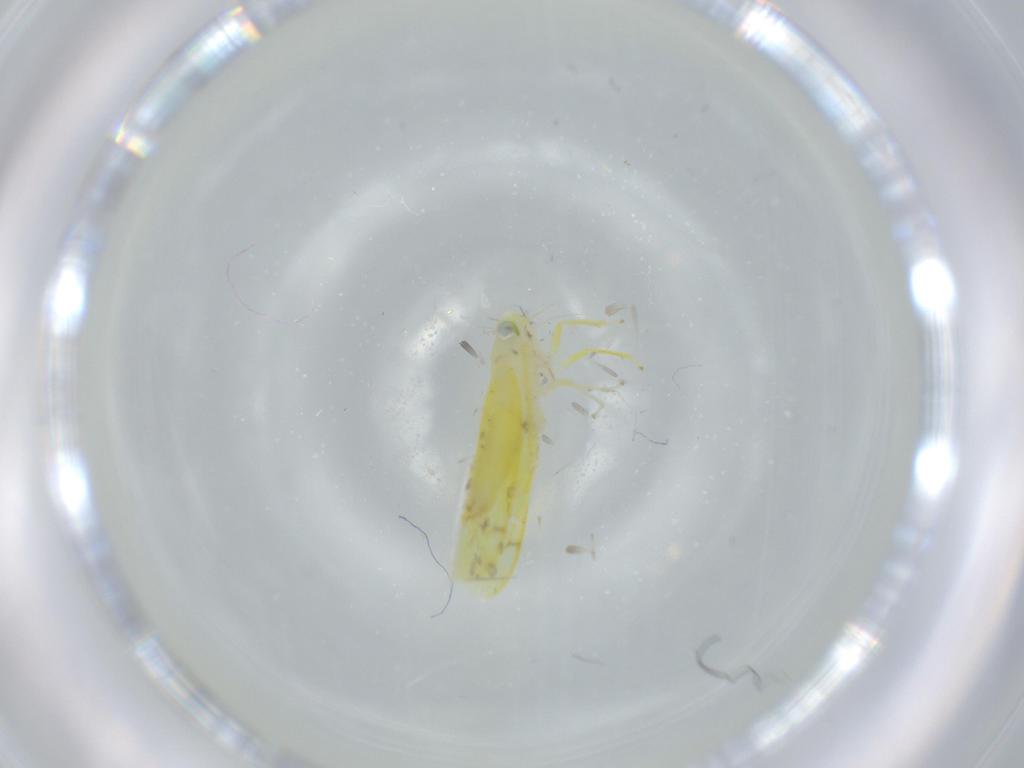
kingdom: Animalia
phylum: Arthropoda
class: Insecta
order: Hemiptera
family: Cicadellidae
